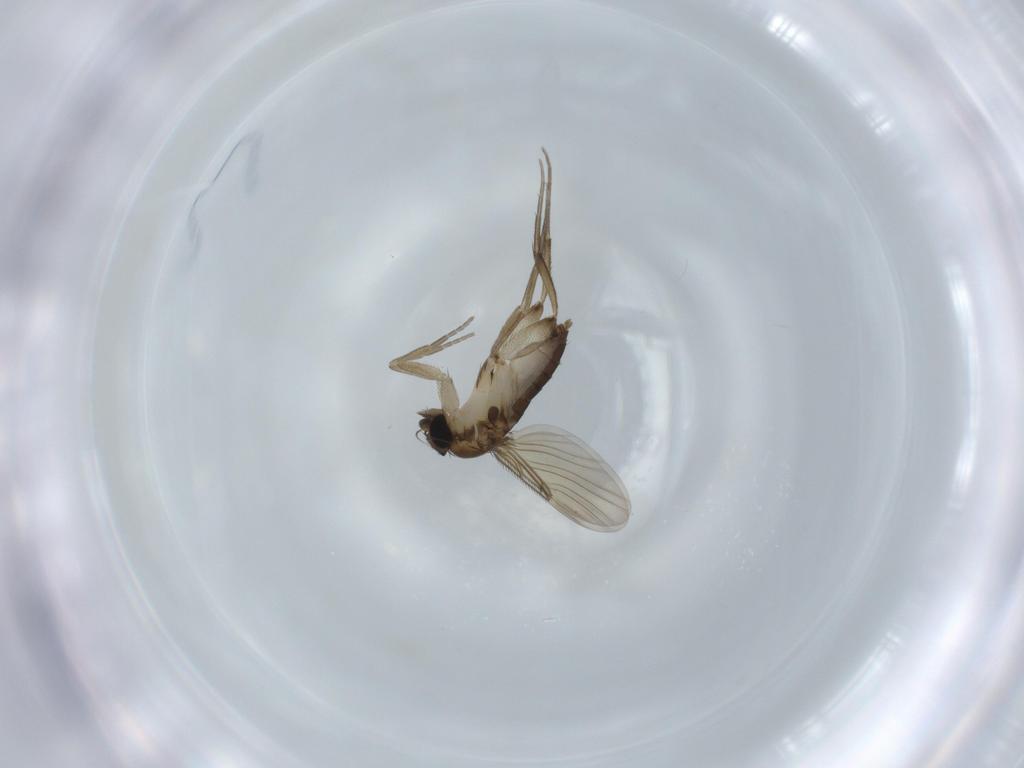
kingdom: Animalia
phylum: Arthropoda
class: Insecta
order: Diptera
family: Phoridae
